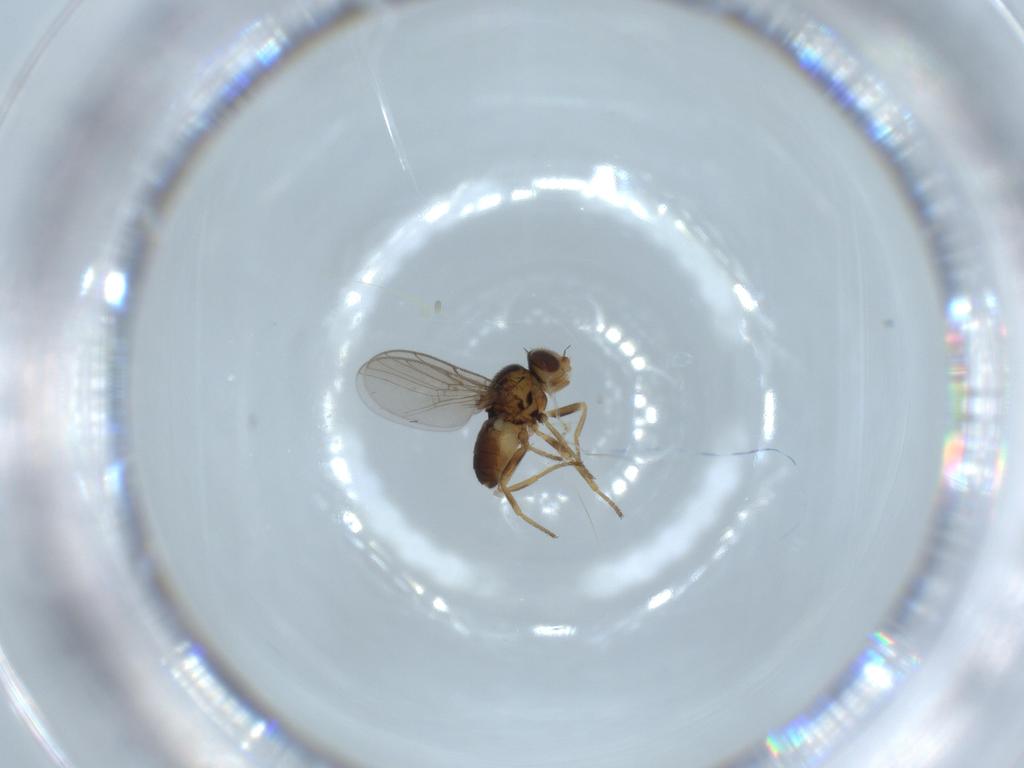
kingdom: Animalia
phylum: Arthropoda
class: Insecta
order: Diptera
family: Chloropidae
